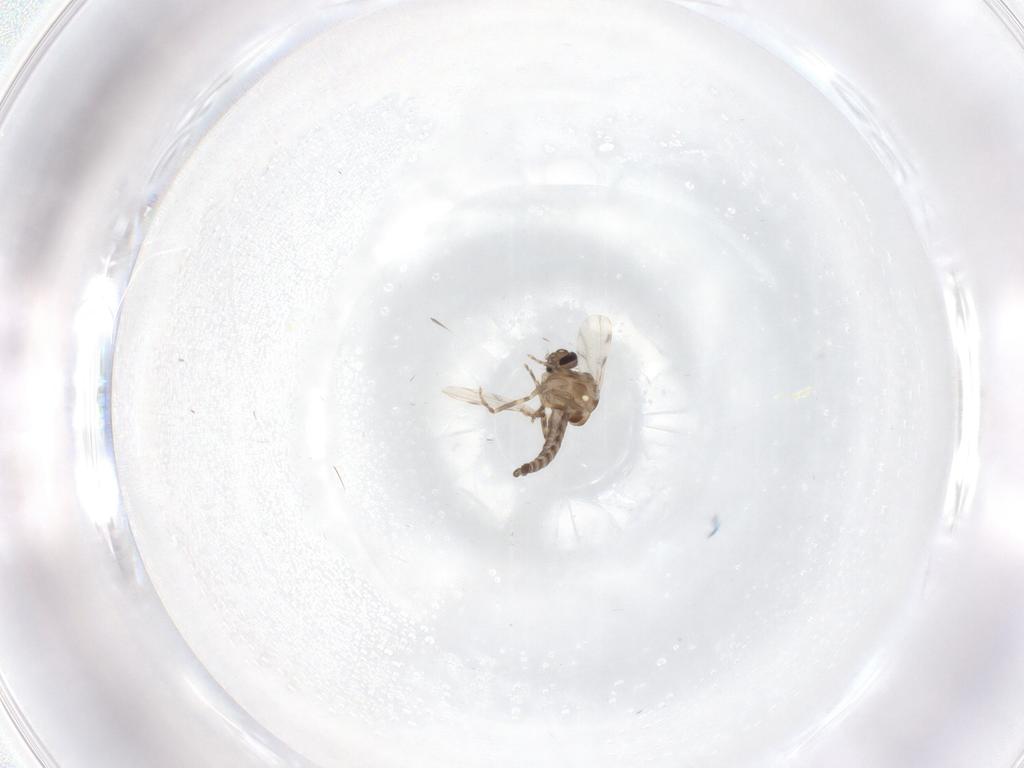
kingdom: Animalia
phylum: Arthropoda
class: Insecta
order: Diptera
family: Ceratopogonidae
